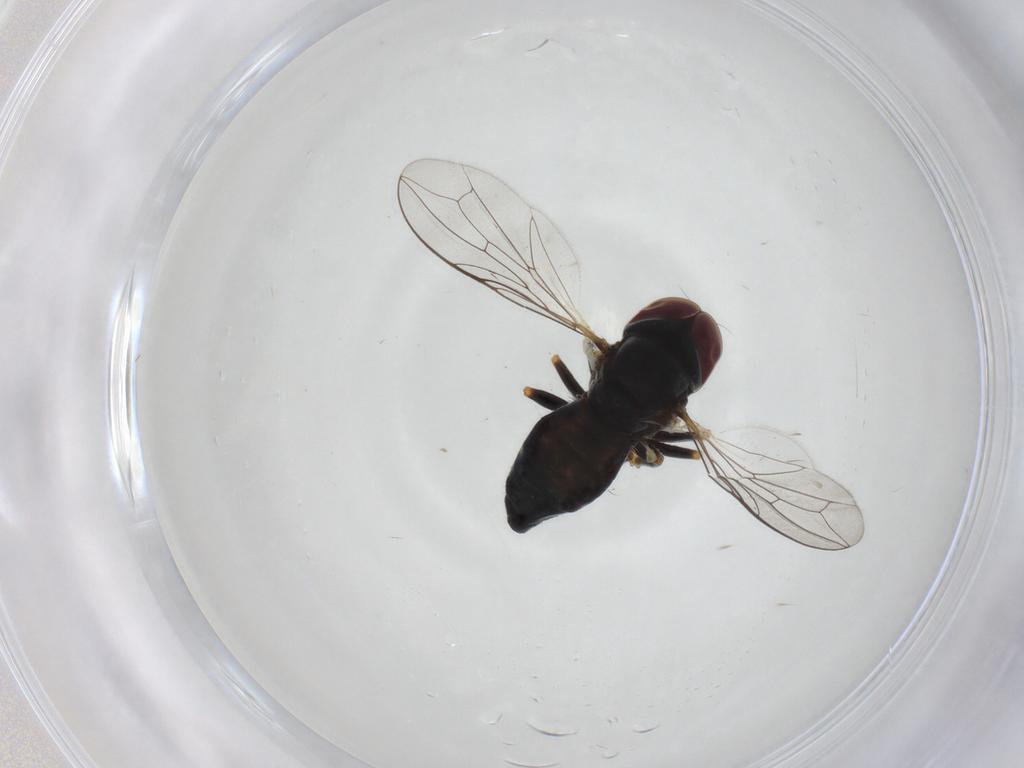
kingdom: Animalia
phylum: Arthropoda
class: Insecta
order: Diptera
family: Pipunculidae
